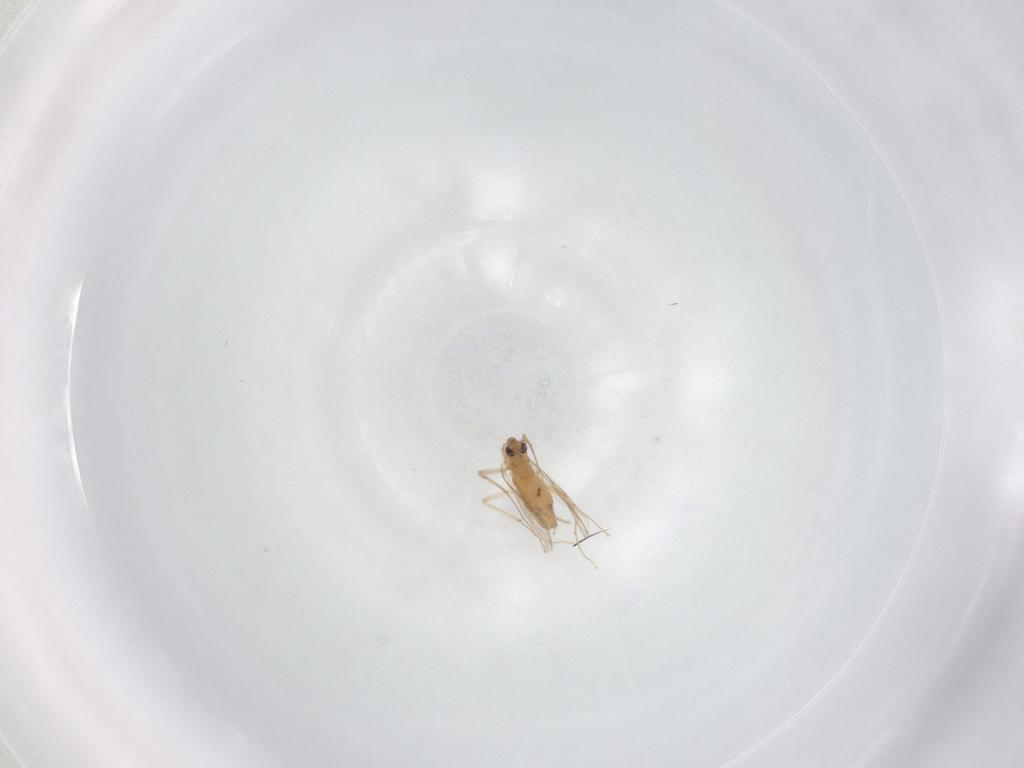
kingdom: Animalia
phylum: Arthropoda
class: Insecta
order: Diptera
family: Chironomidae
